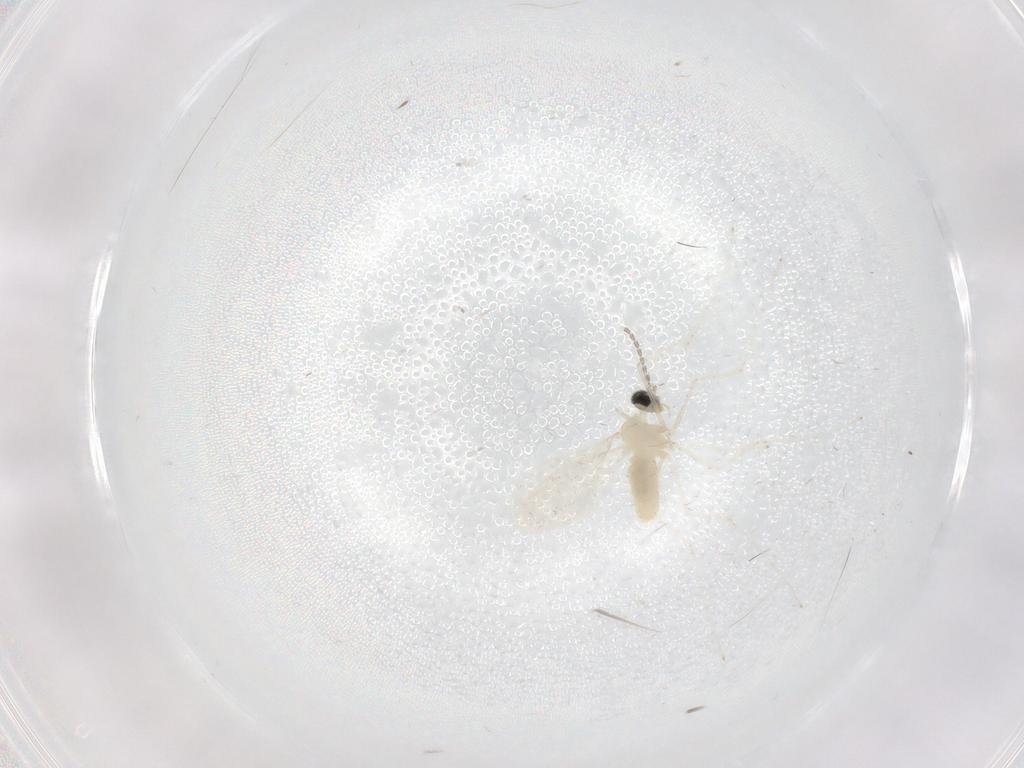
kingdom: Animalia
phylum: Arthropoda
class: Insecta
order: Diptera
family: Cecidomyiidae
